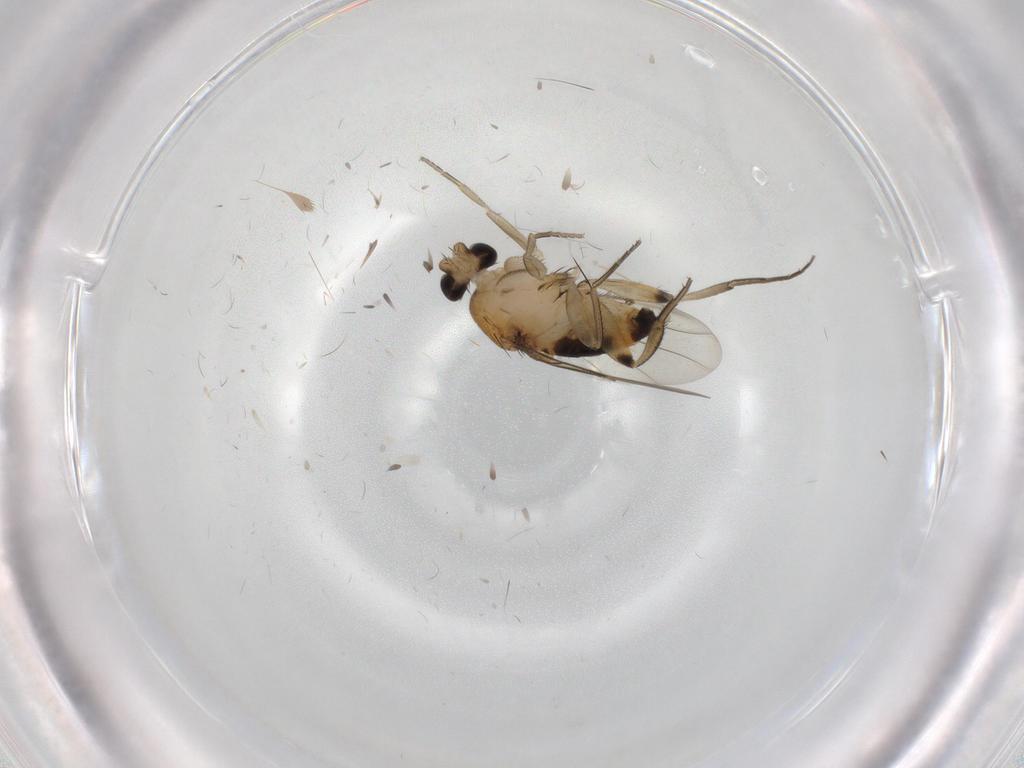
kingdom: Animalia
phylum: Arthropoda
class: Insecta
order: Diptera
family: Phoridae
